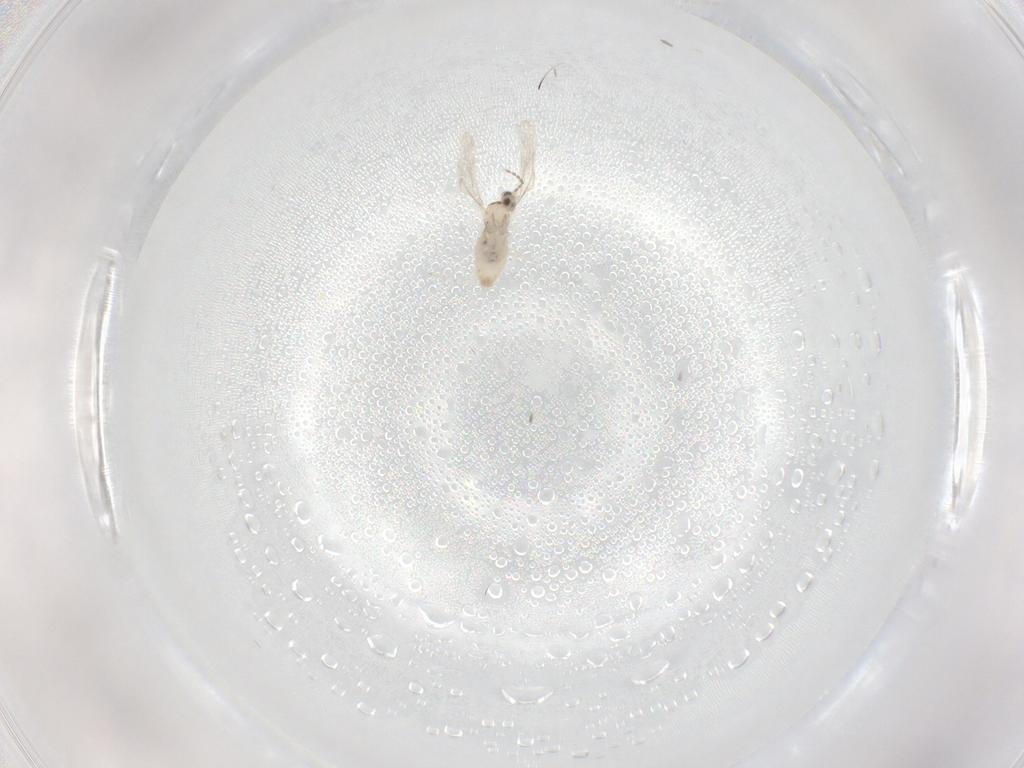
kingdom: Animalia
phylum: Arthropoda
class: Insecta
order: Diptera
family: Cecidomyiidae
